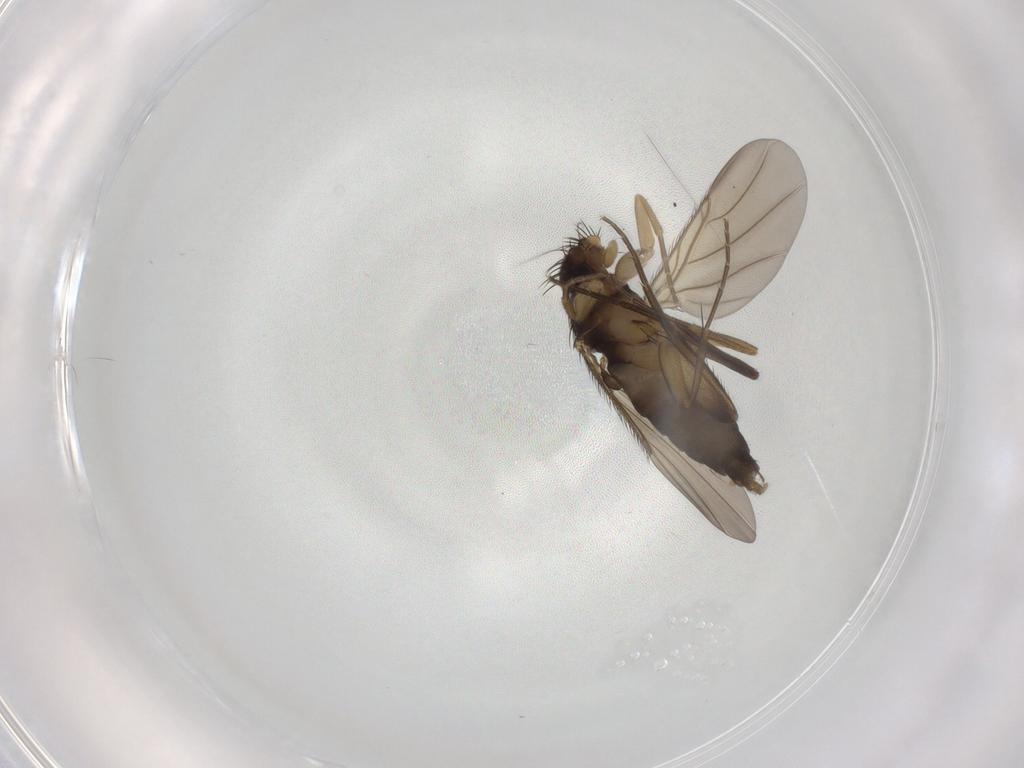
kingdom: Animalia
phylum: Arthropoda
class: Insecta
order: Diptera
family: Phoridae
